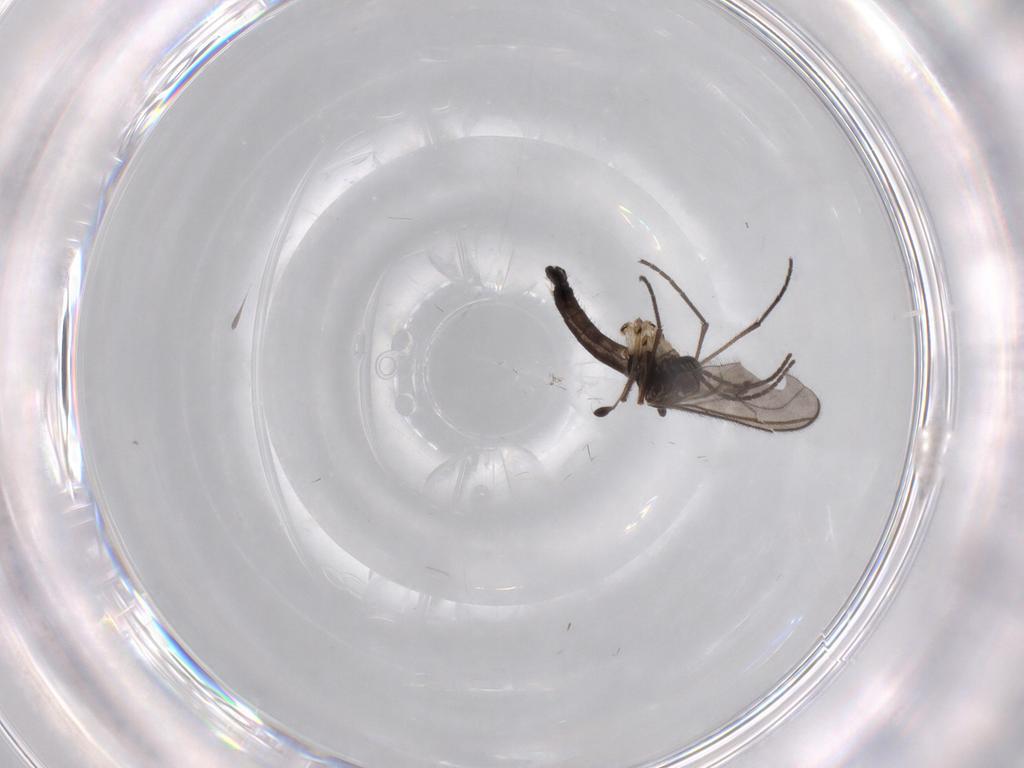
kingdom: Animalia
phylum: Arthropoda
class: Insecta
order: Diptera
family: Sciaridae
